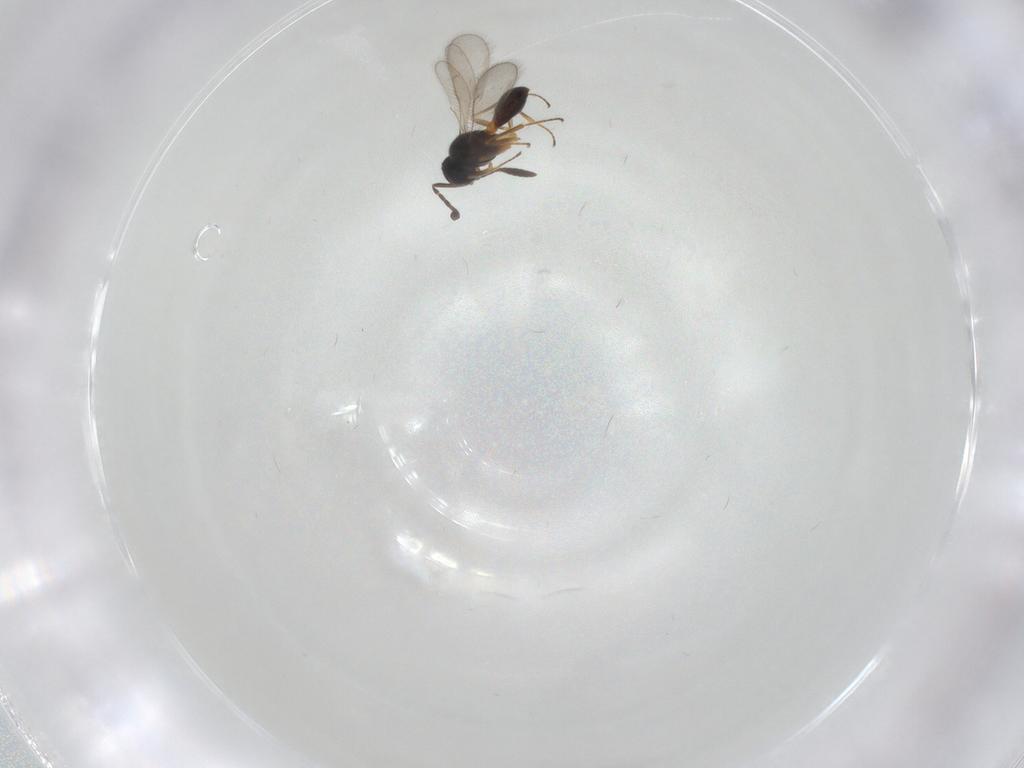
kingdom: Animalia
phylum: Arthropoda
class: Insecta
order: Hymenoptera
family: Scelionidae
